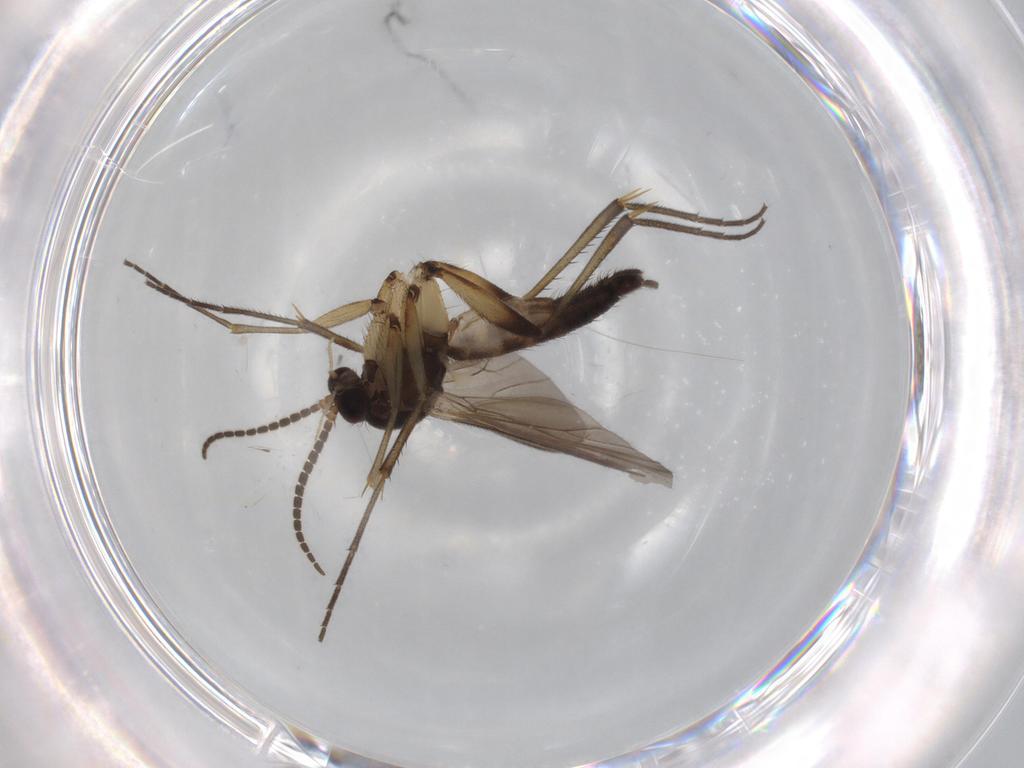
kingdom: Animalia
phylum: Arthropoda
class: Insecta
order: Diptera
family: Mycetophilidae
